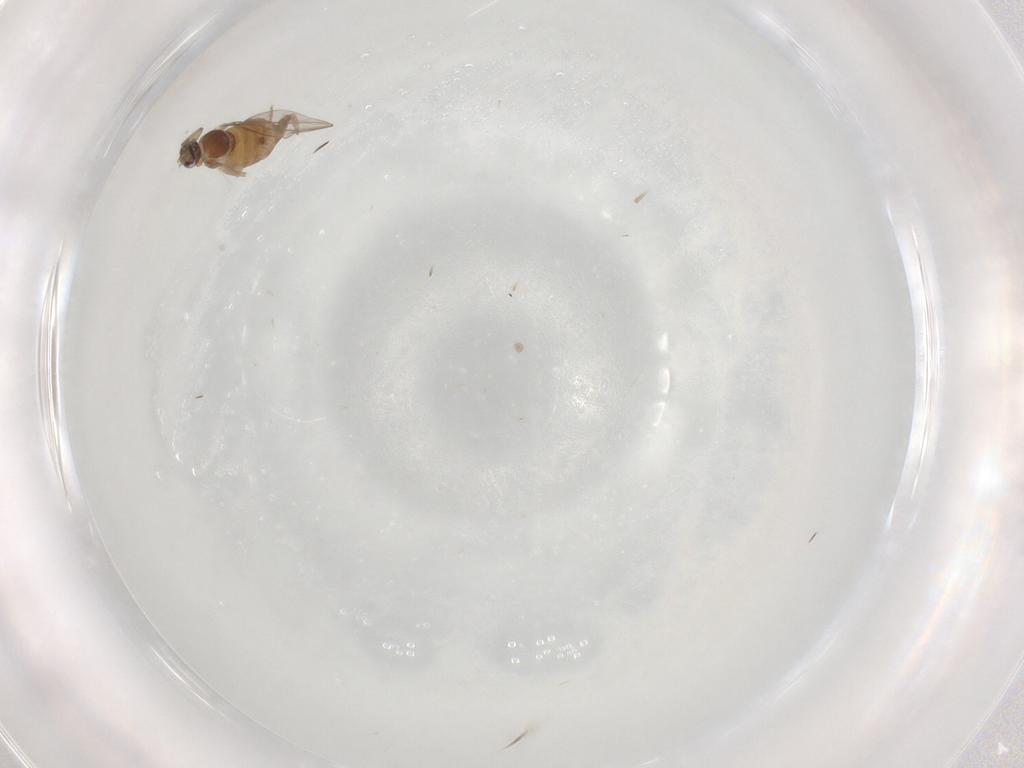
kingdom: Animalia
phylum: Arthropoda
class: Insecta
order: Diptera
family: Cecidomyiidae
